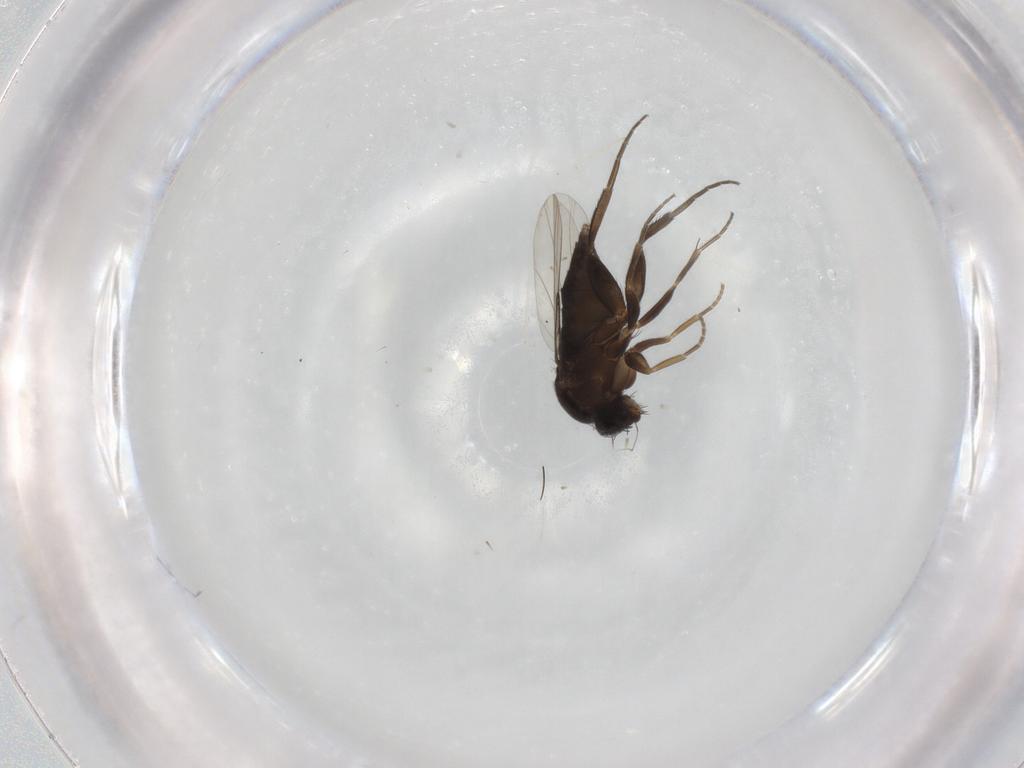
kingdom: Animalia
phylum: Arthropoda
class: Insecta
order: Diptera
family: Phoridae
